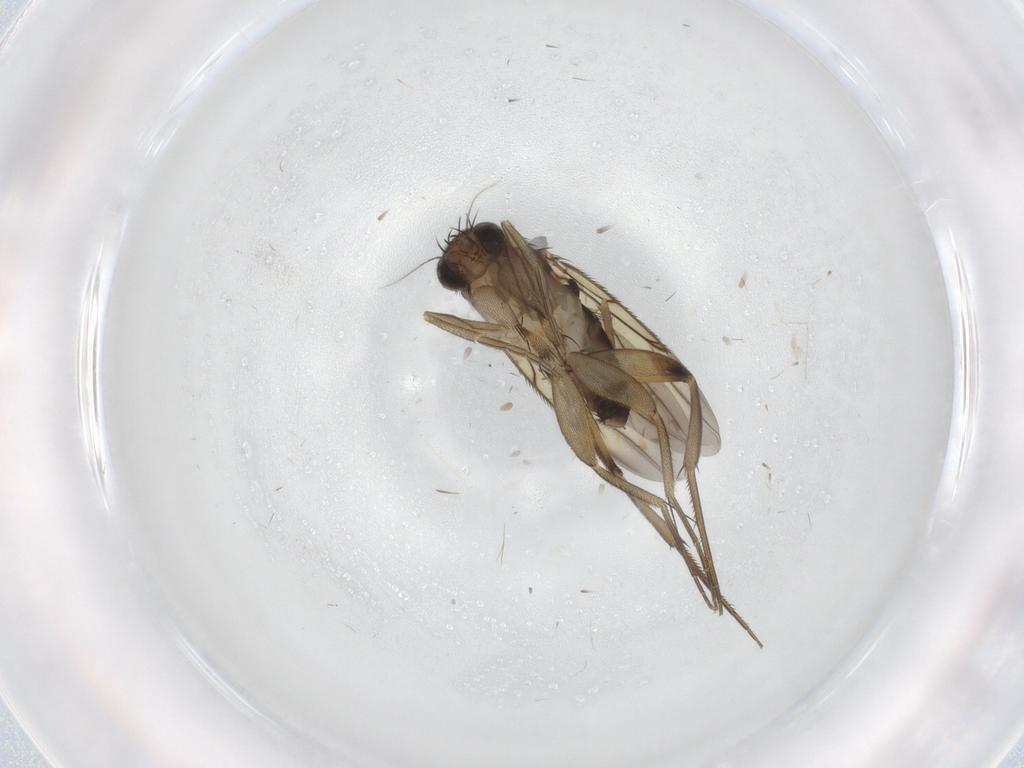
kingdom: Animalia
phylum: Arthropoda
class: Insecta
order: Diptera
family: Phoridae
